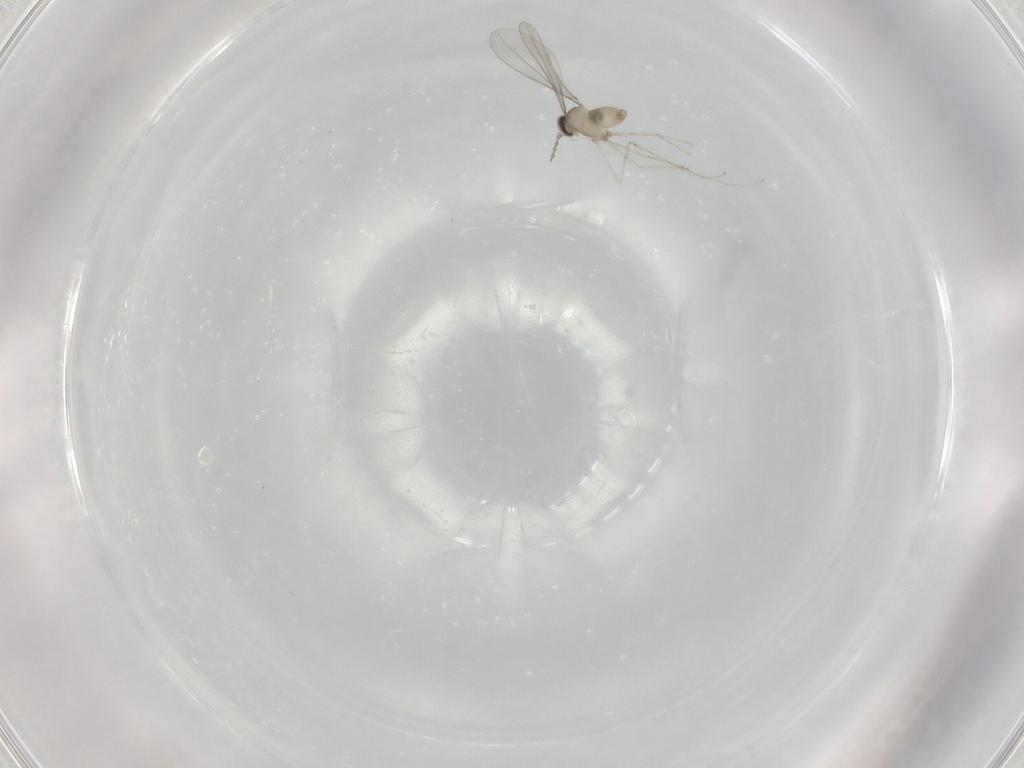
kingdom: Animalia
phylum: Arthropoda
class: Insecta
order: Diptera
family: Cecidomyiidae
